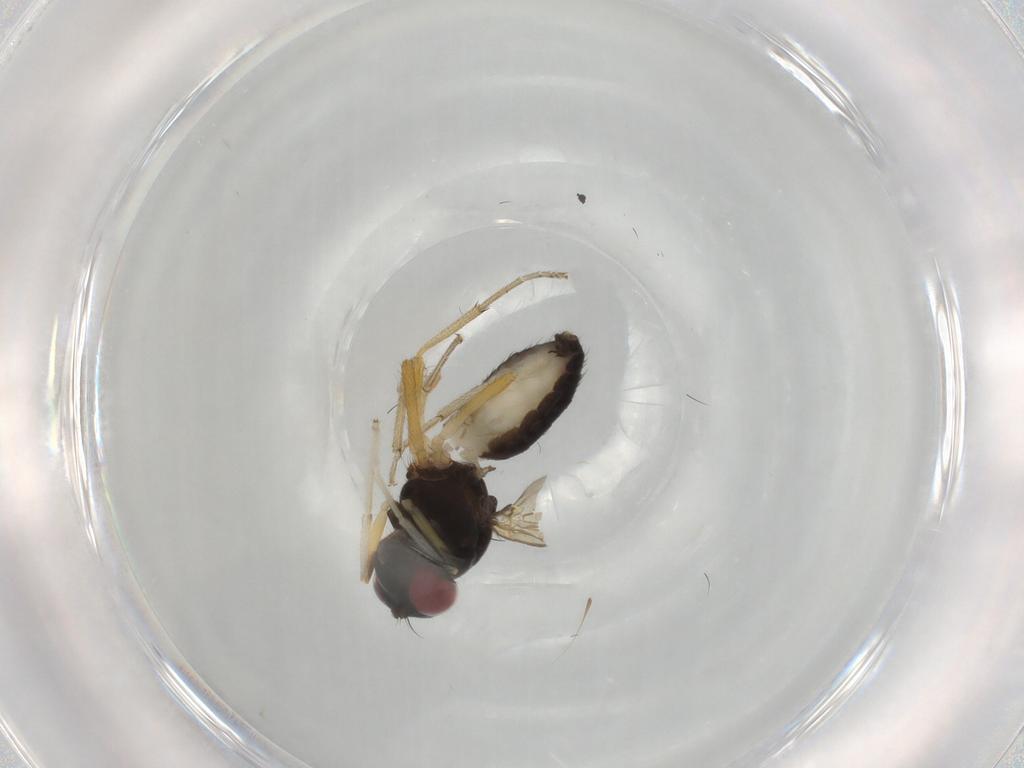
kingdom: Animalia
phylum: Arthropoda
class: Insecta
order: Diptera
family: Lauxaniidae
